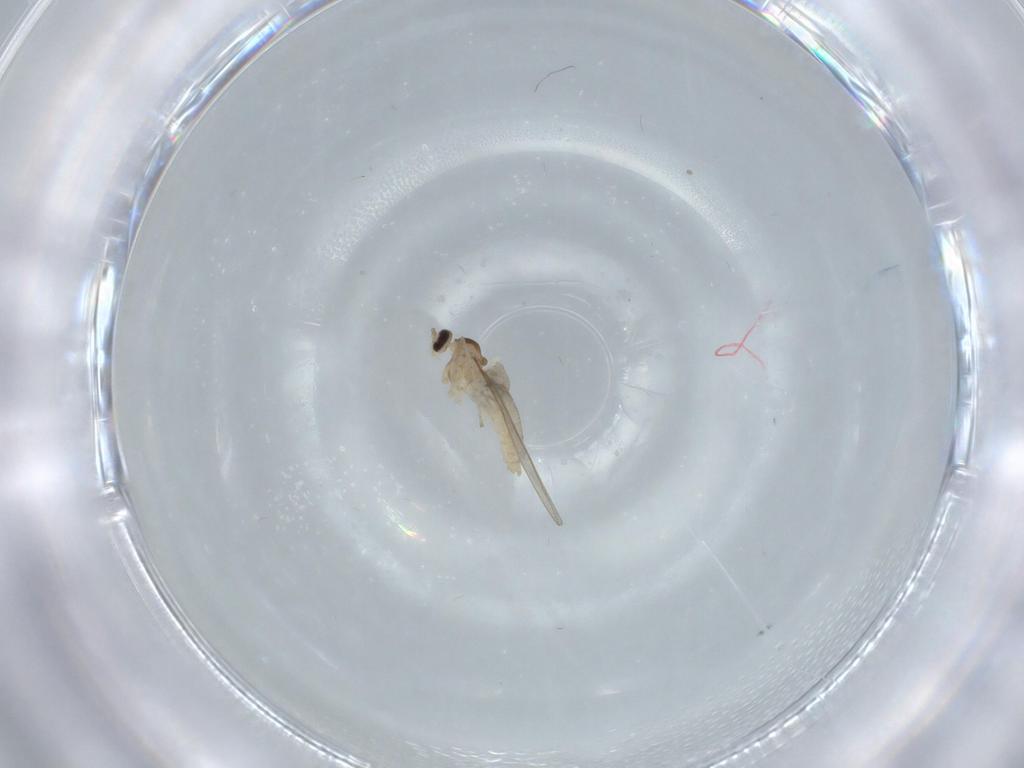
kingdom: Animalia
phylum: Arthropoda
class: Insecta
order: Diptera
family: Cecidomyiidae
